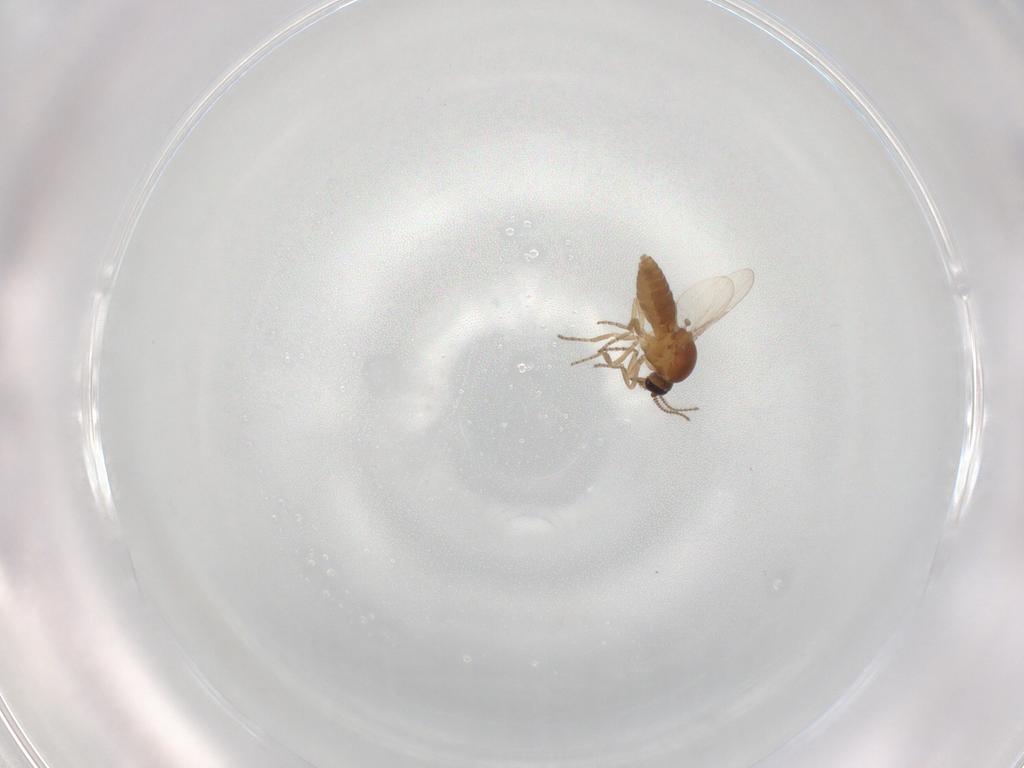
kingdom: Animalia
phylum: Arthropoda
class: Insecta
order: Diptera
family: Ceratopogonidae
